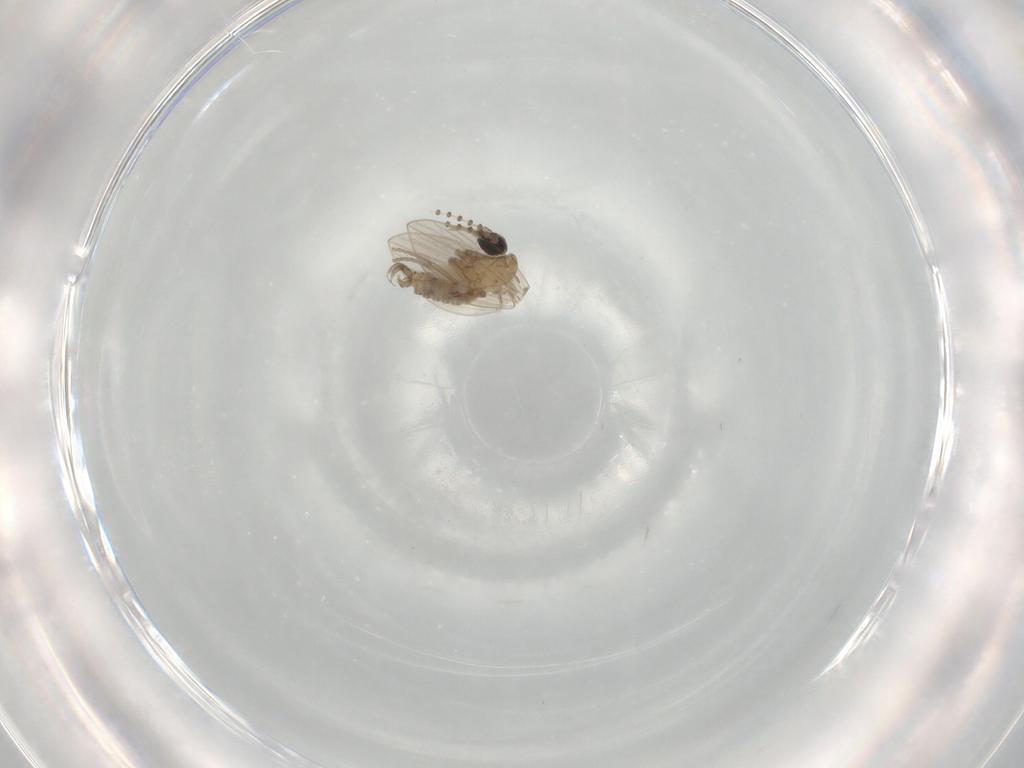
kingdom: Animalia
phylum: Arthropoda
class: Insecta
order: Diptera
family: Psychodidae
